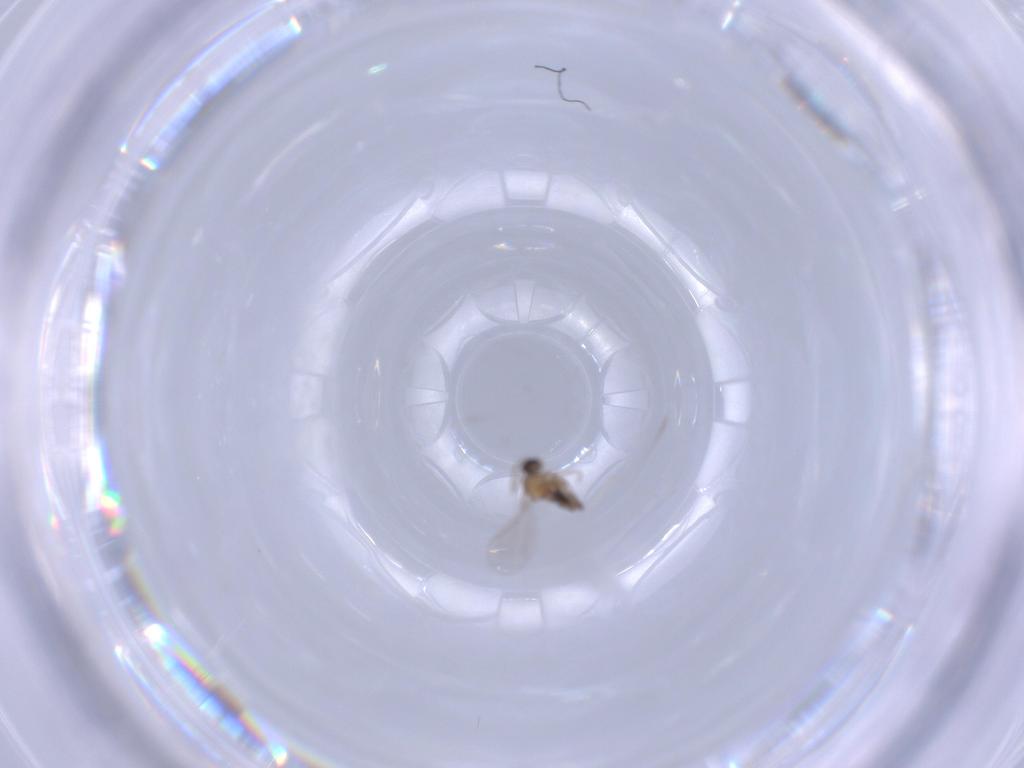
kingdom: Animalia
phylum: Arthropoda
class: Insecta
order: Diptera
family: Cecidomyiidae
